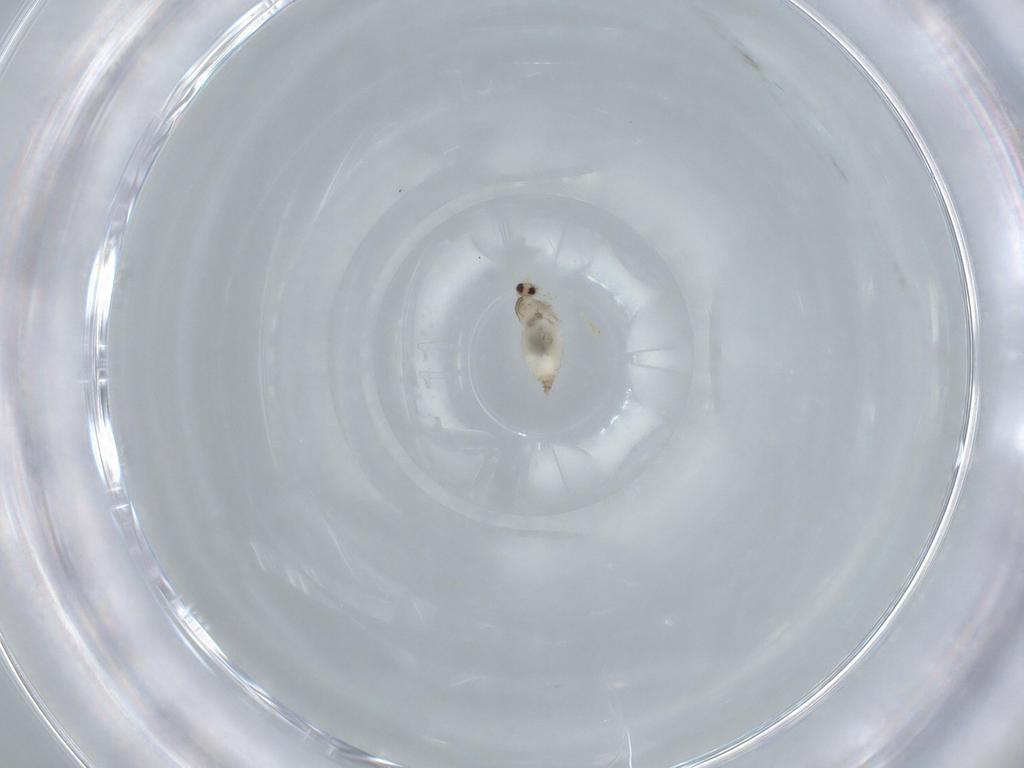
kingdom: Animalia
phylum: Arthropoda
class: Insecta
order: Diptera
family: Cecidomyiidae
